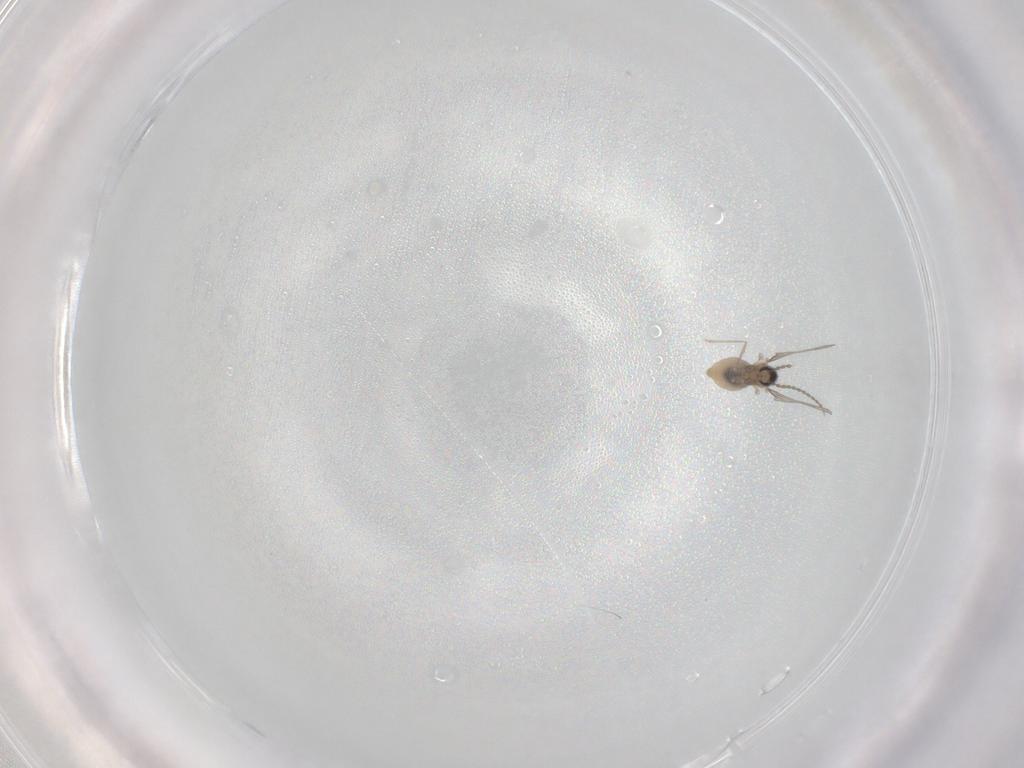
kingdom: Animalia
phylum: Arthropoda
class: Insecta
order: Diptera
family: Cecidomyiidae
